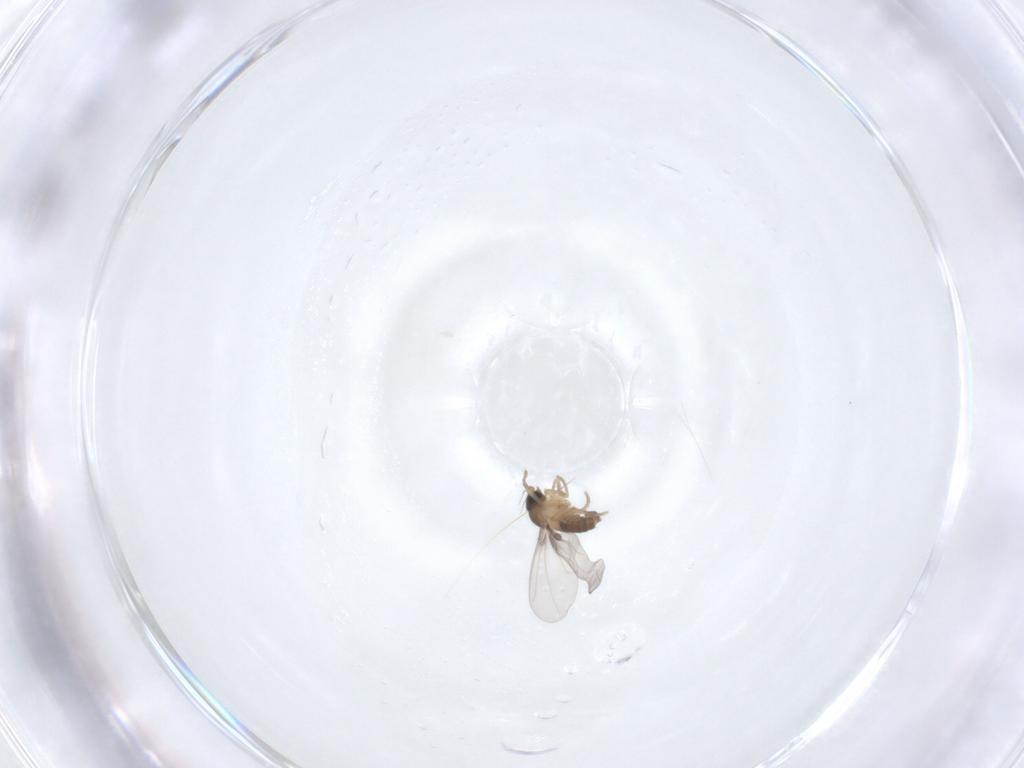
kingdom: Animalia
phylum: Arthropoda
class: Insecta
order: Diptera
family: Phoridae
